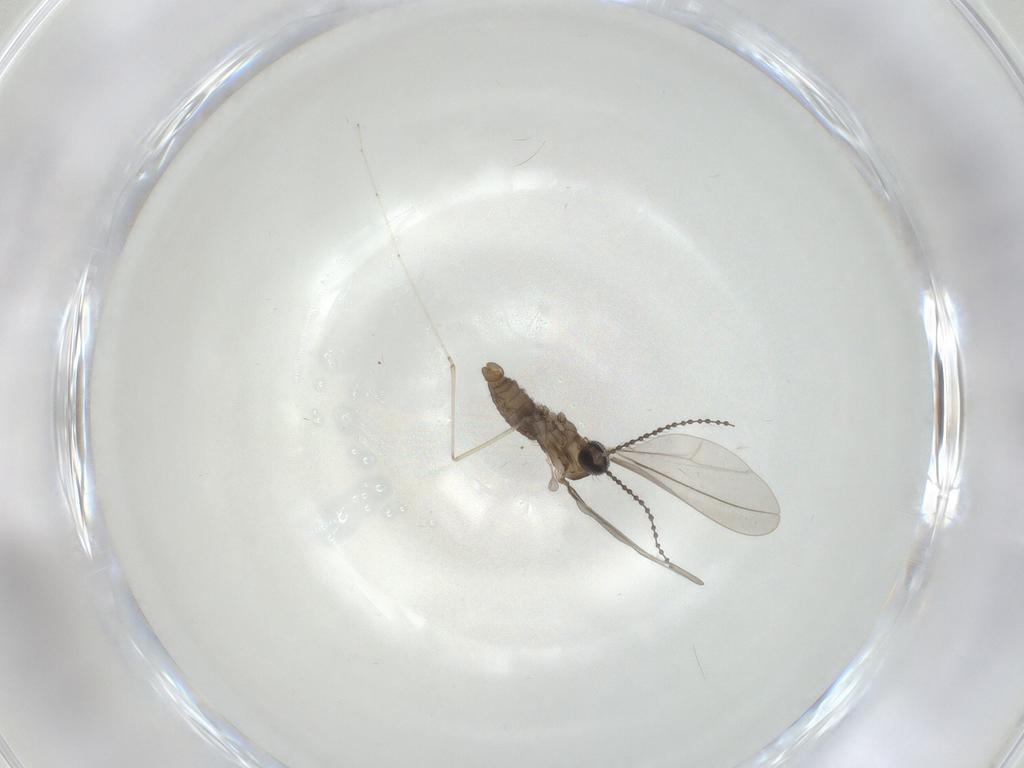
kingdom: Animalia
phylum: Arthropoda
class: Insecta
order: Diptera
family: Cecidomyiidae
